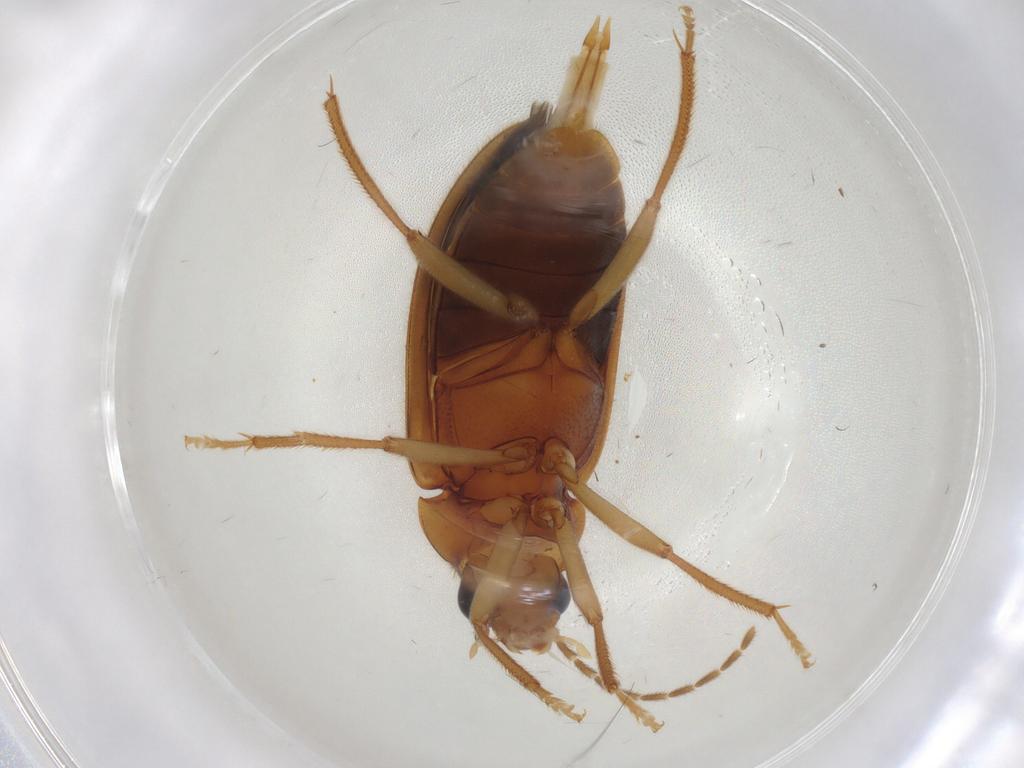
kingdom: Animalia
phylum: Arthropoda
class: Insecta
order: Coleoptera
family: Ptilodactylidae
